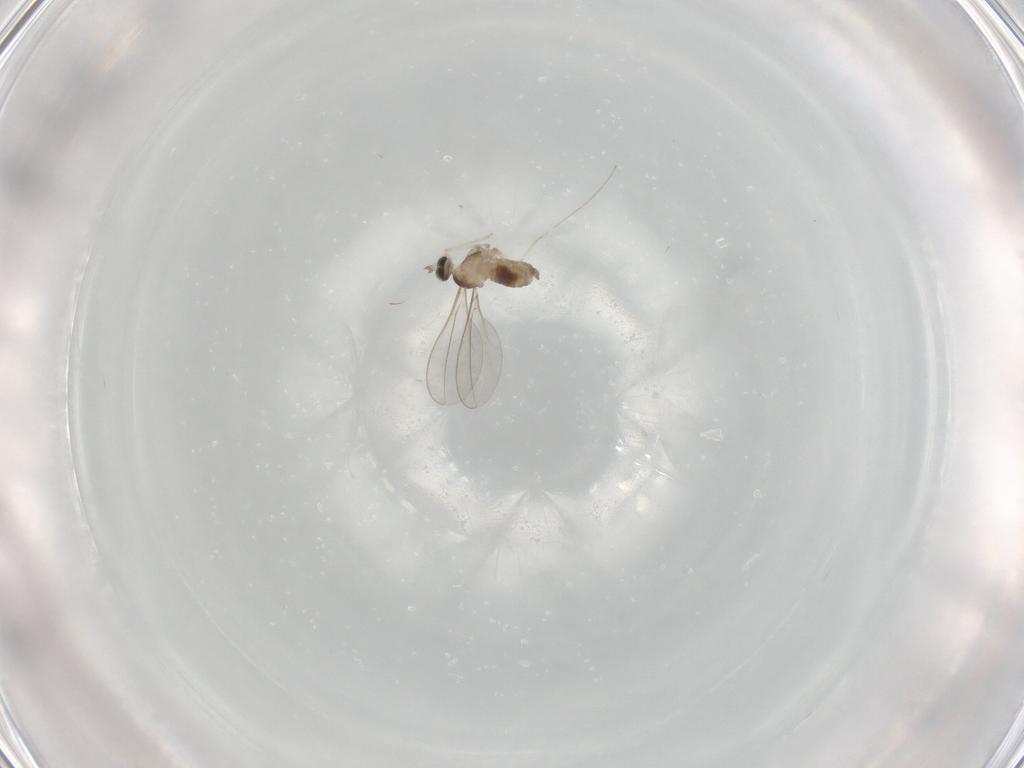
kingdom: Animalia
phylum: Arthropoda
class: Insecta
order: Diptera
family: Cecidomyiidae
